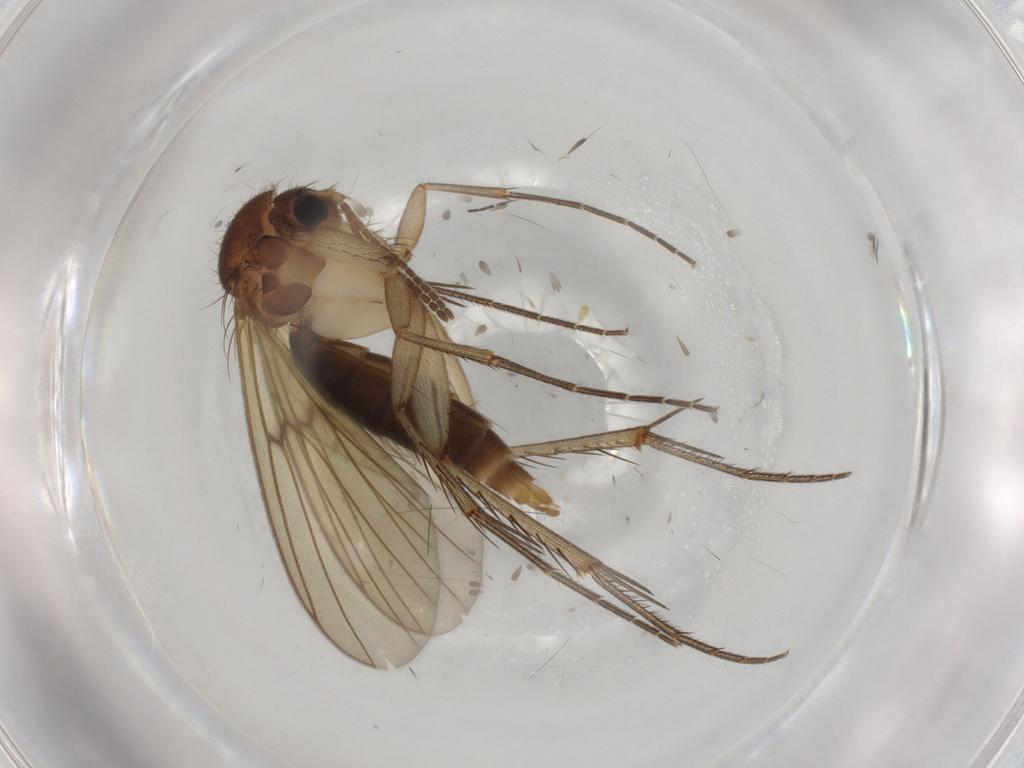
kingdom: Animalia
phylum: Arthropoda
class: Insecta
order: Diptera
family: Mycetophilidae
